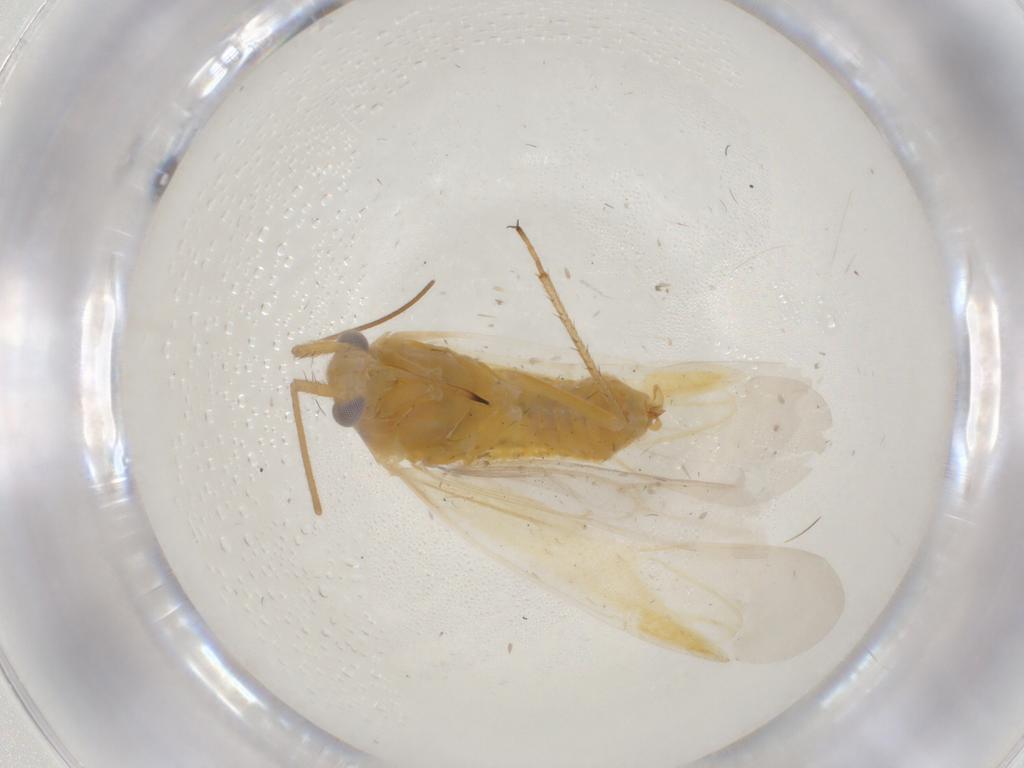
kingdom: Animalia
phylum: Arthropoda
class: Insecta
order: Hemiptera
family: Miridae
